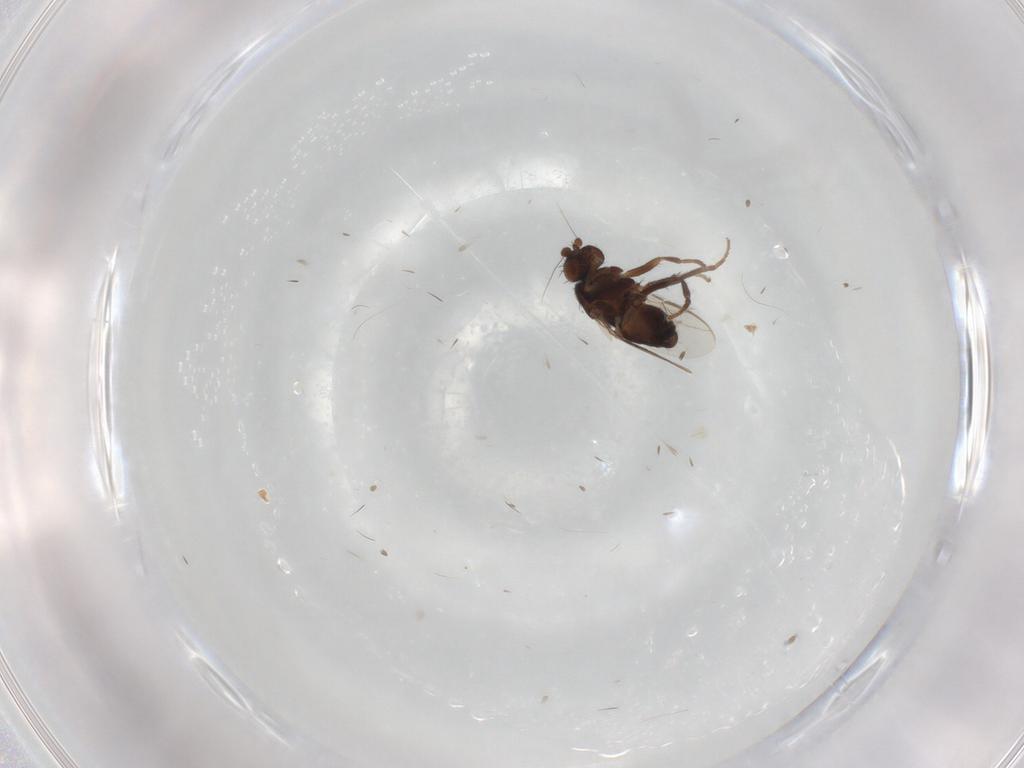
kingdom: Animalia
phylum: Arthropoda
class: Insecta
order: Diptera
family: Sphaeroceridae
